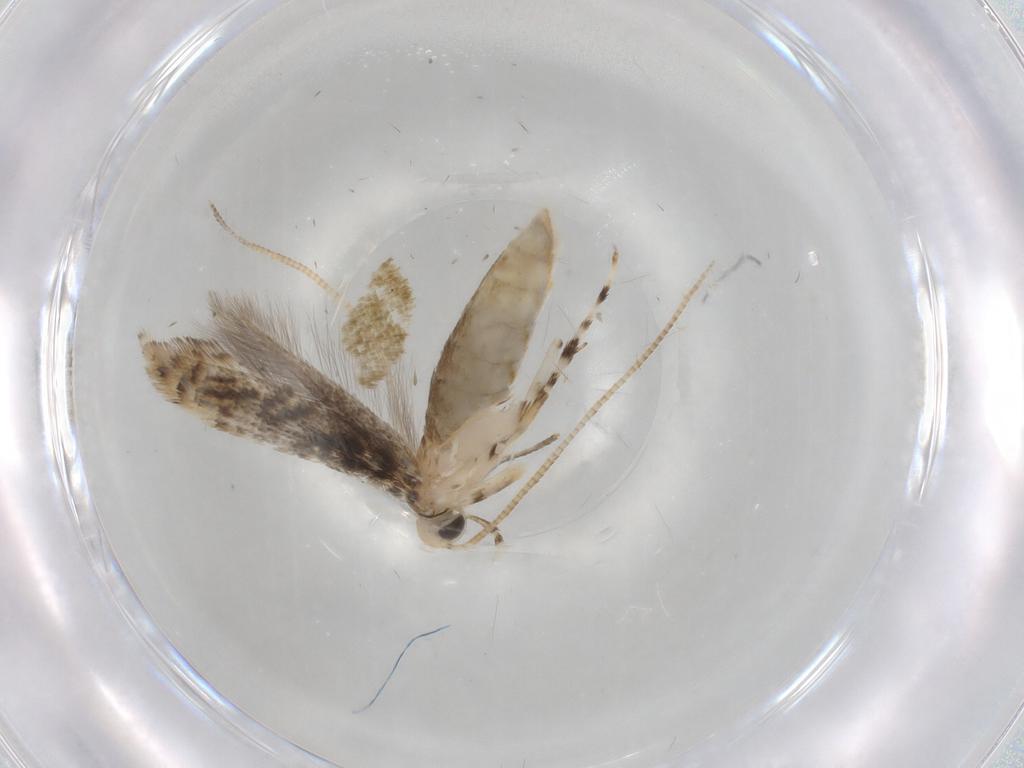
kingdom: Animalia
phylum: Arthropoda
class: Insecta
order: Lepidoptera
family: Gracillariidae
